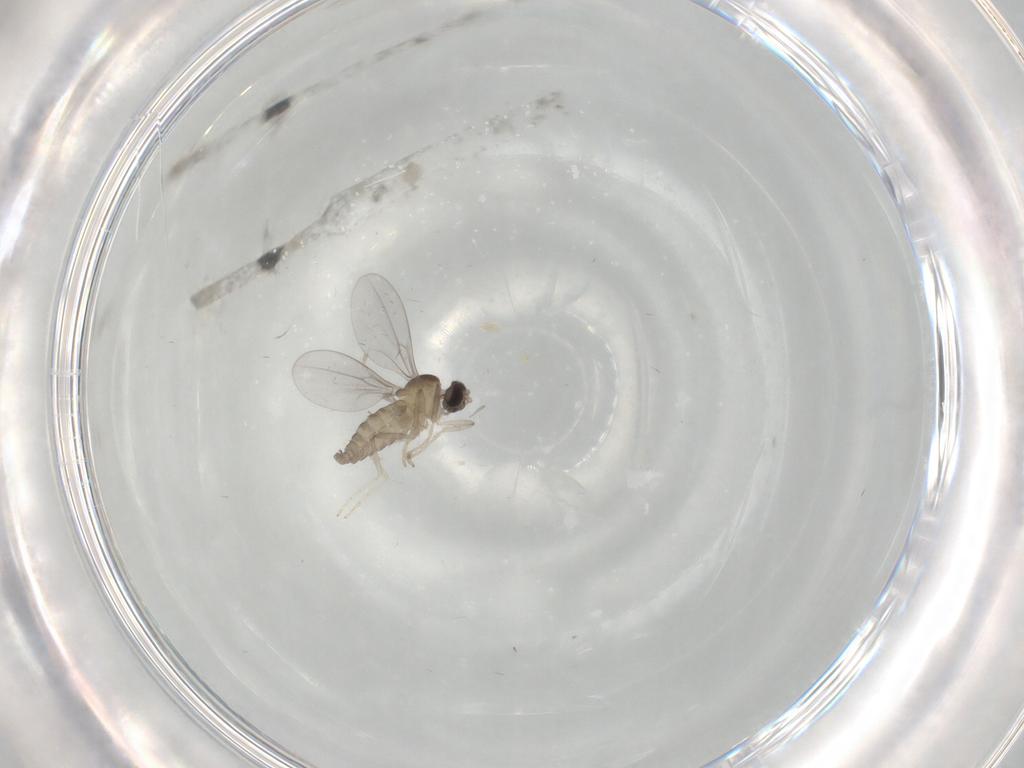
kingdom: Animalia
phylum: Arthropoda
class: Insecta
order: Diptera
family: Cecidomyiidae
